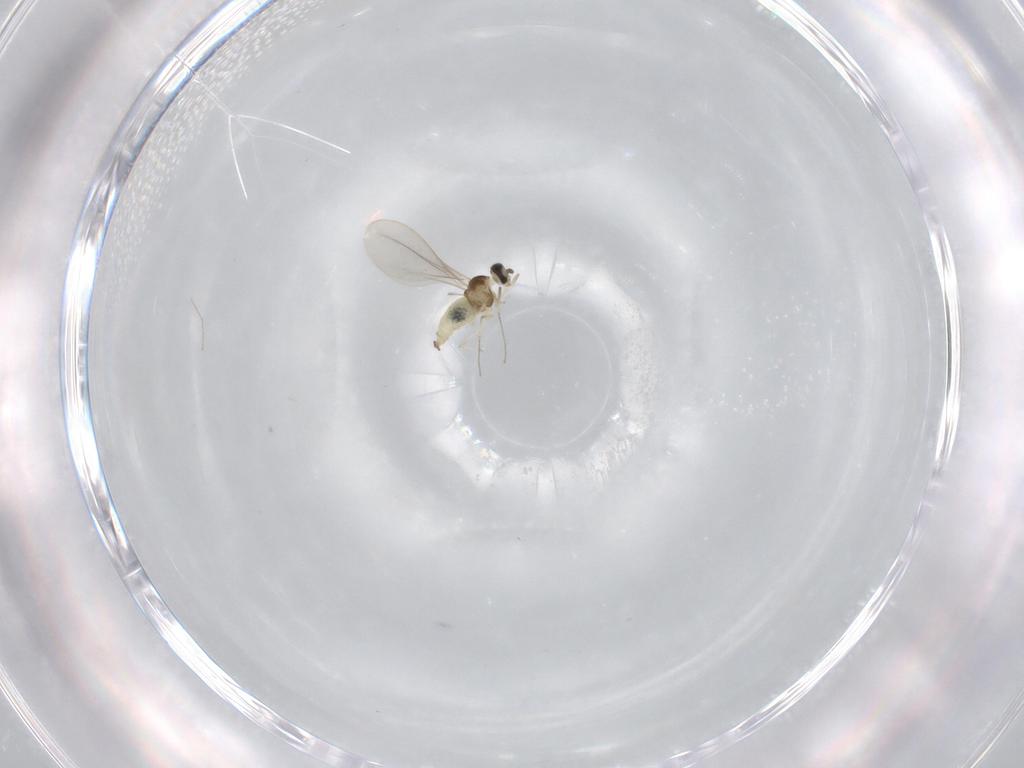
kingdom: Animalia
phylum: Arthropoda
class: Insecta
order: Diptera
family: Cecidomyiidae
